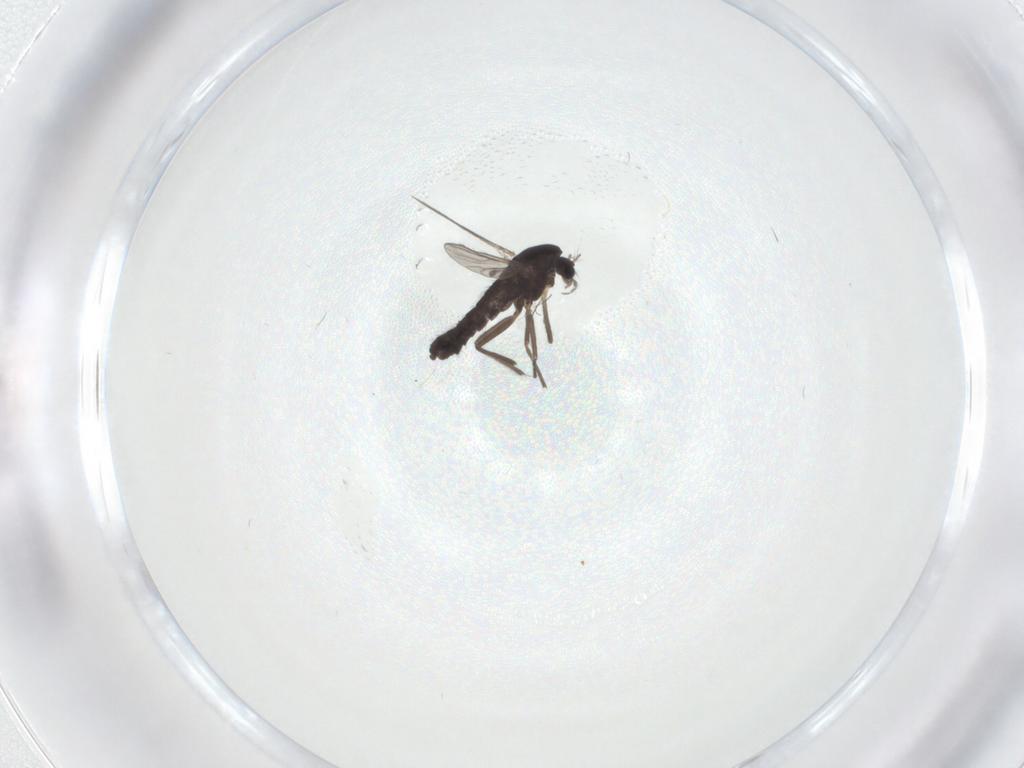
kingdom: Animalia
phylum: Arthropoda
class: Insecta
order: Diptera
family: Chironomidae
